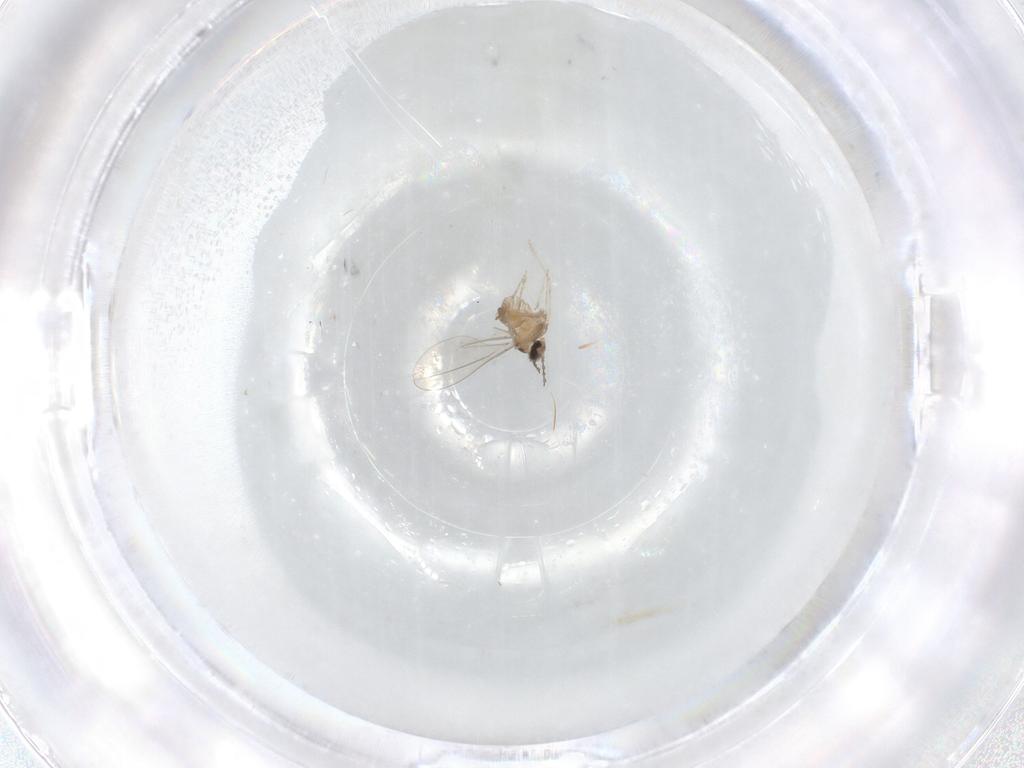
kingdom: Animalia
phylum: Arthropoda
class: Insecta
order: Diptera
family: Cecidomyiidae
